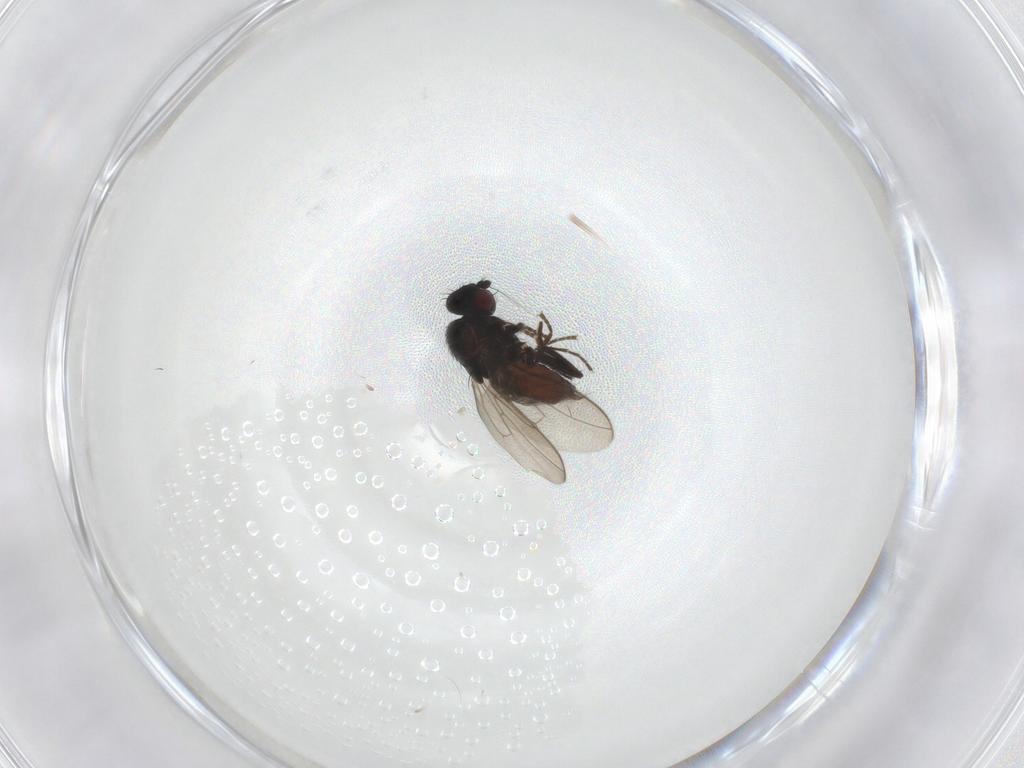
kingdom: Animalia
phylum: Arthropoda
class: Insecta
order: Diptera
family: Sphaeroceridae
